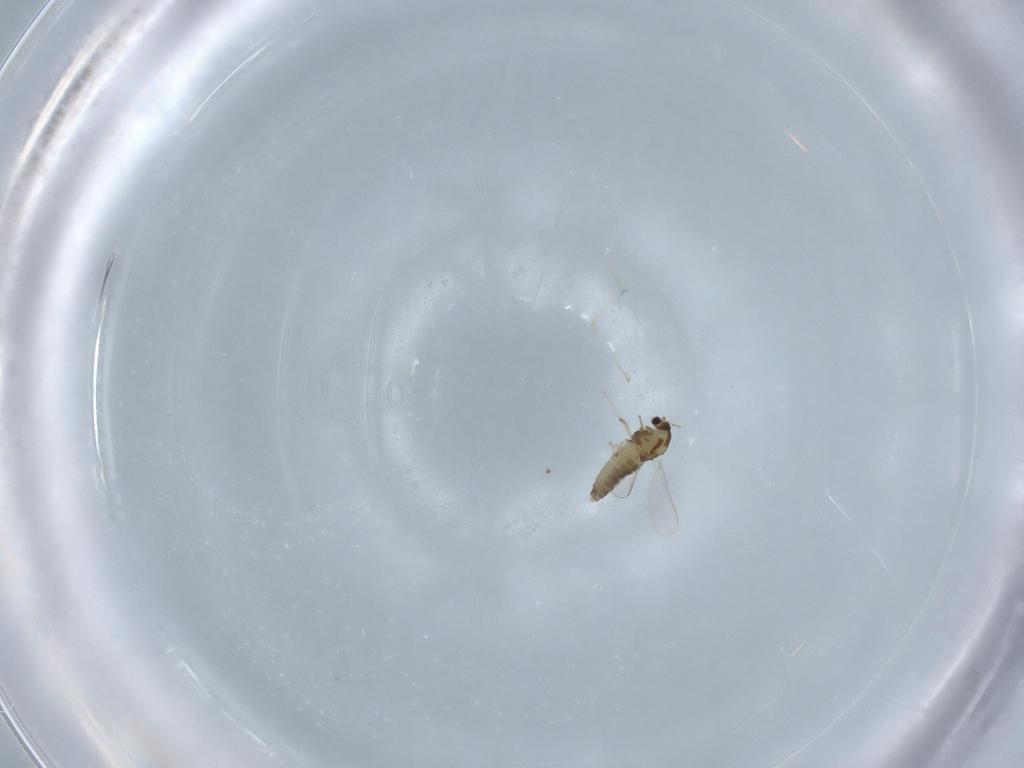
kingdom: Animalia
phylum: Arthropoda
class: Insecta
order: Diptera
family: Chironomidae
